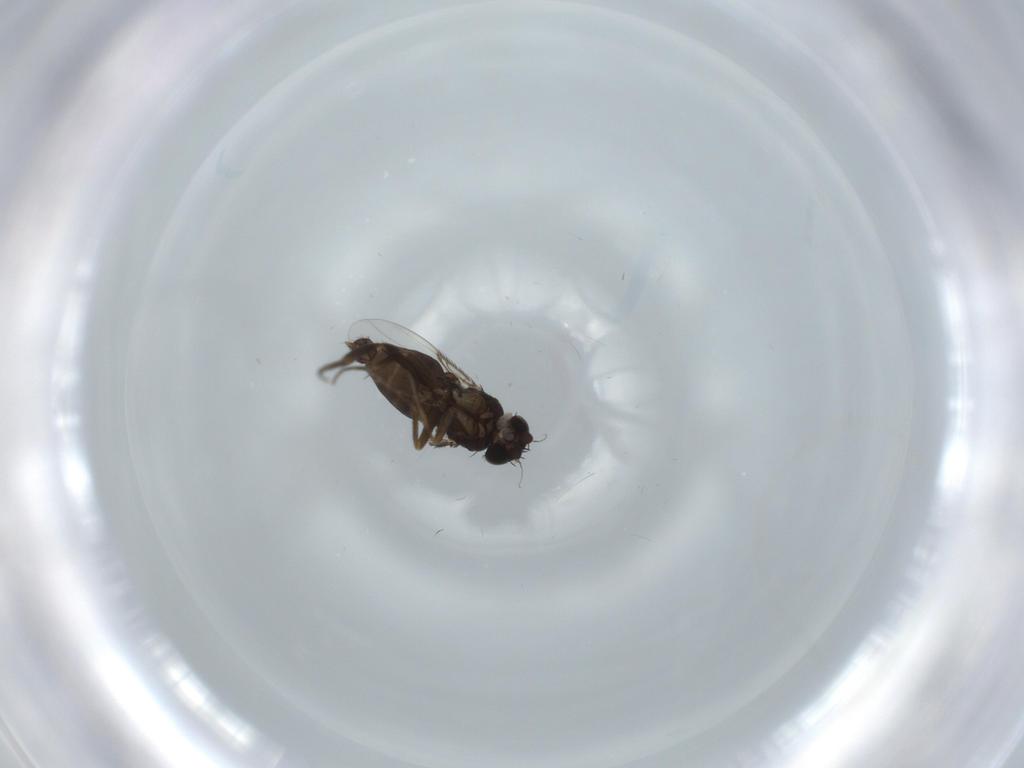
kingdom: Animalia
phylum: Arthropoda
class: Insecta
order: Diptera
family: Phoridae
